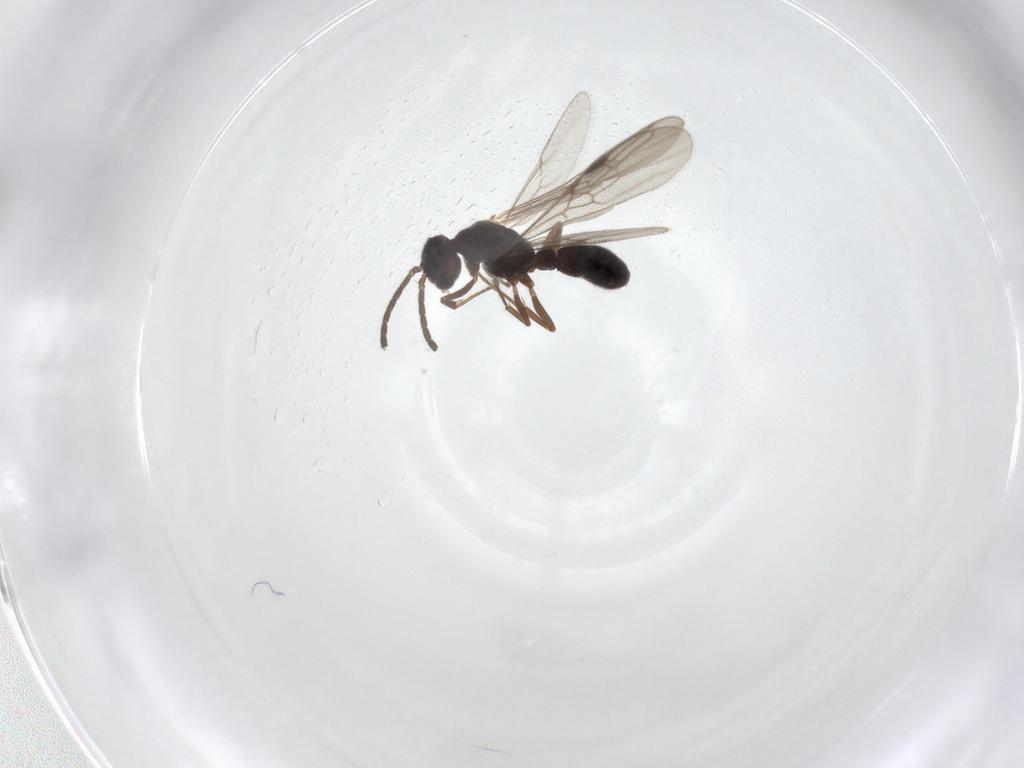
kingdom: Animalia
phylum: Arthropoda
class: Insecta
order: Hymenoptera
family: Formicidae
